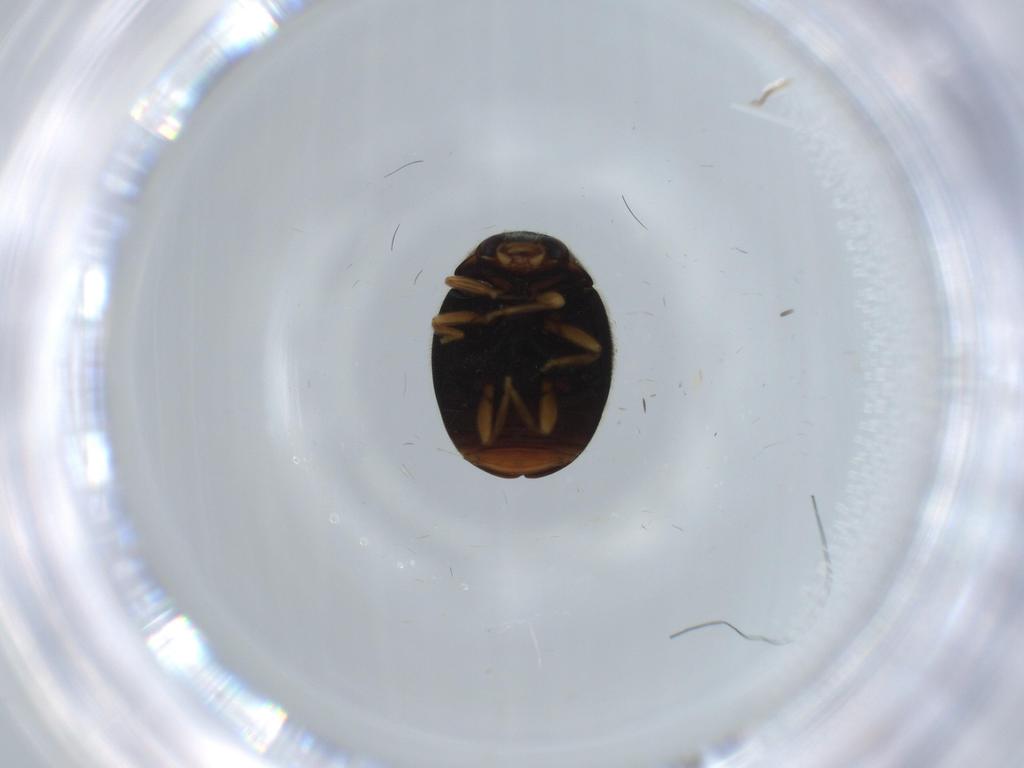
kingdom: Animalia
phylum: Arthropoda
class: Insecta
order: Coleoptera
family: Coccinellidae
